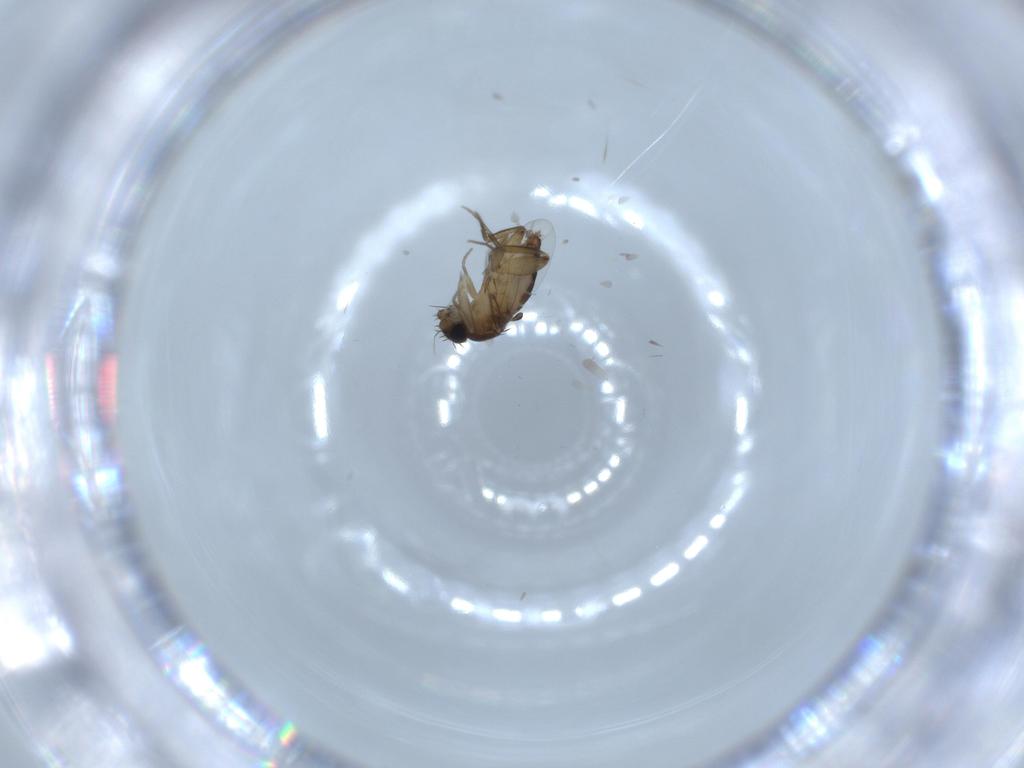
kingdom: Animalia
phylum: Arthropoda
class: Insecta
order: Diptera
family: Phoridae
